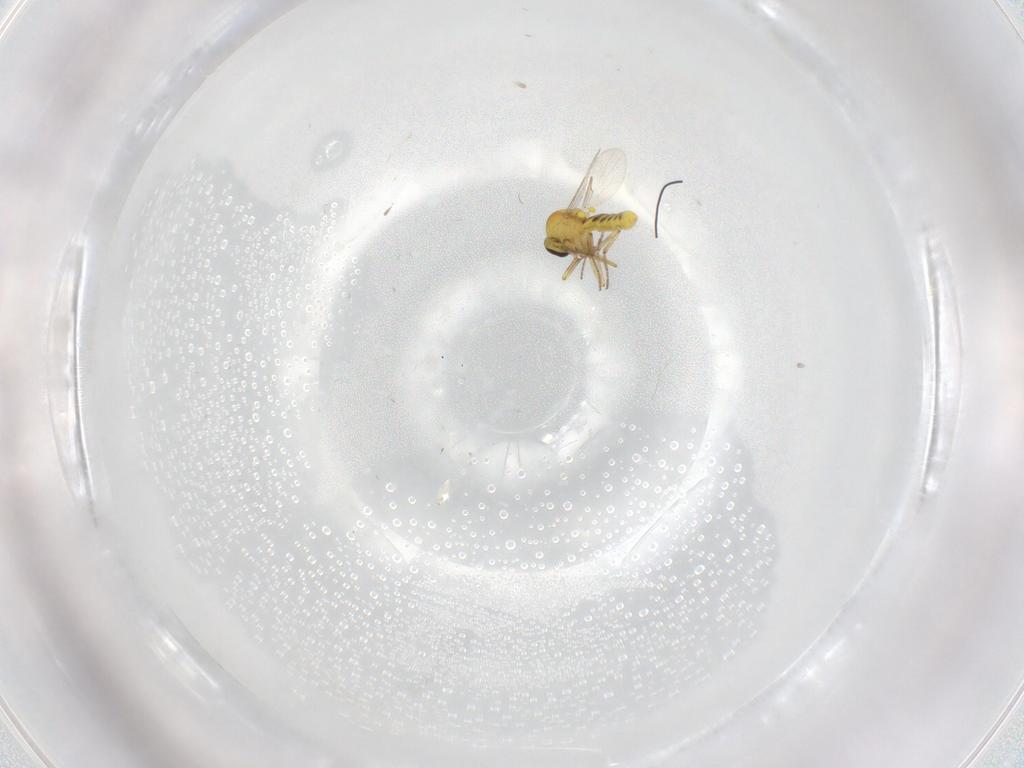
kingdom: Animalia
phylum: Arthropoda
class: Insecta
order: Diptera
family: Ceratopogonidae
